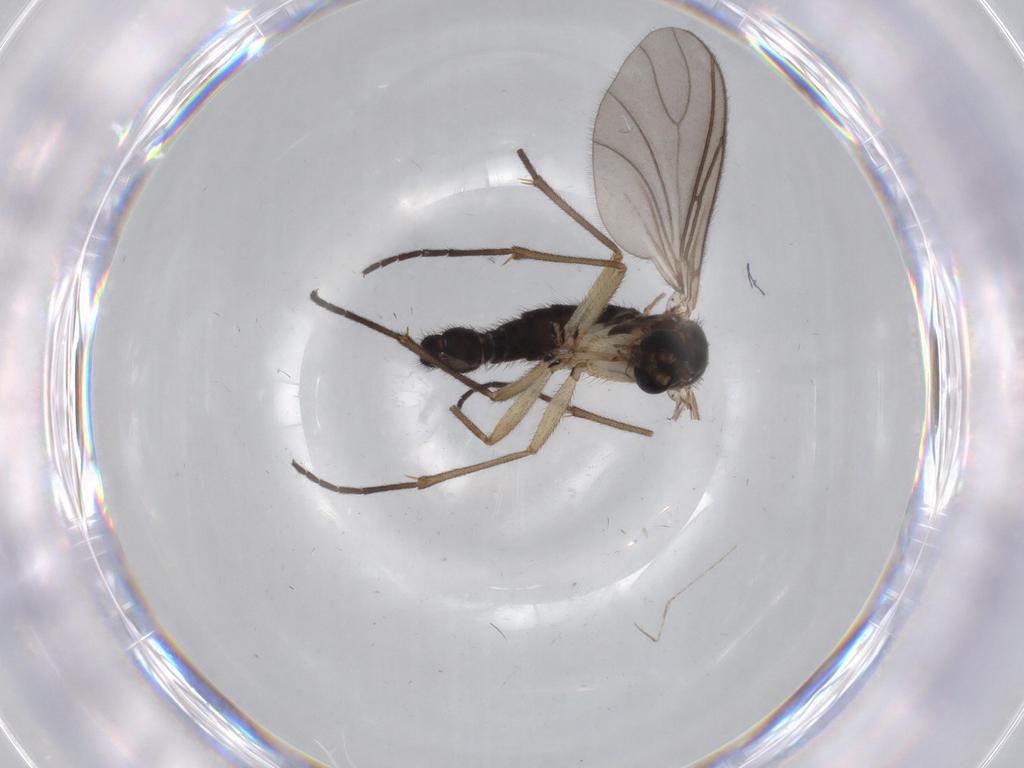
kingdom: Animalia
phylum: Arthropoda
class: Insecta
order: Diptera
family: Sciaridae
